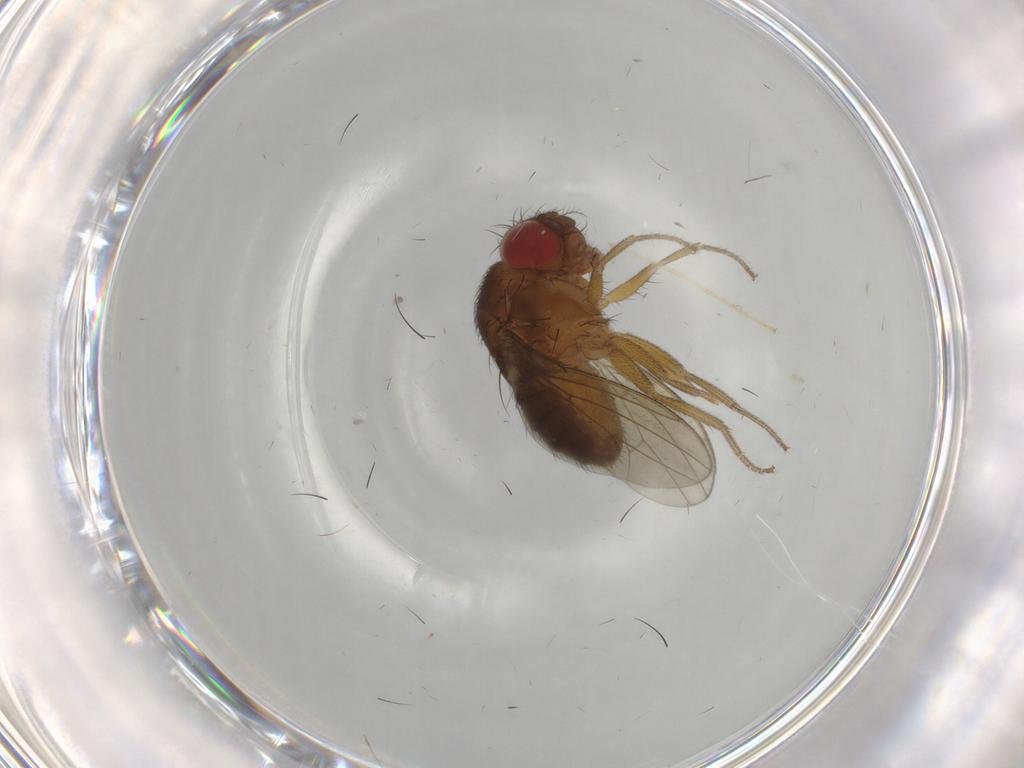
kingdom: Animalia
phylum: Arthropoda
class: Insecta
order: Diptera
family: Drosophilidae
